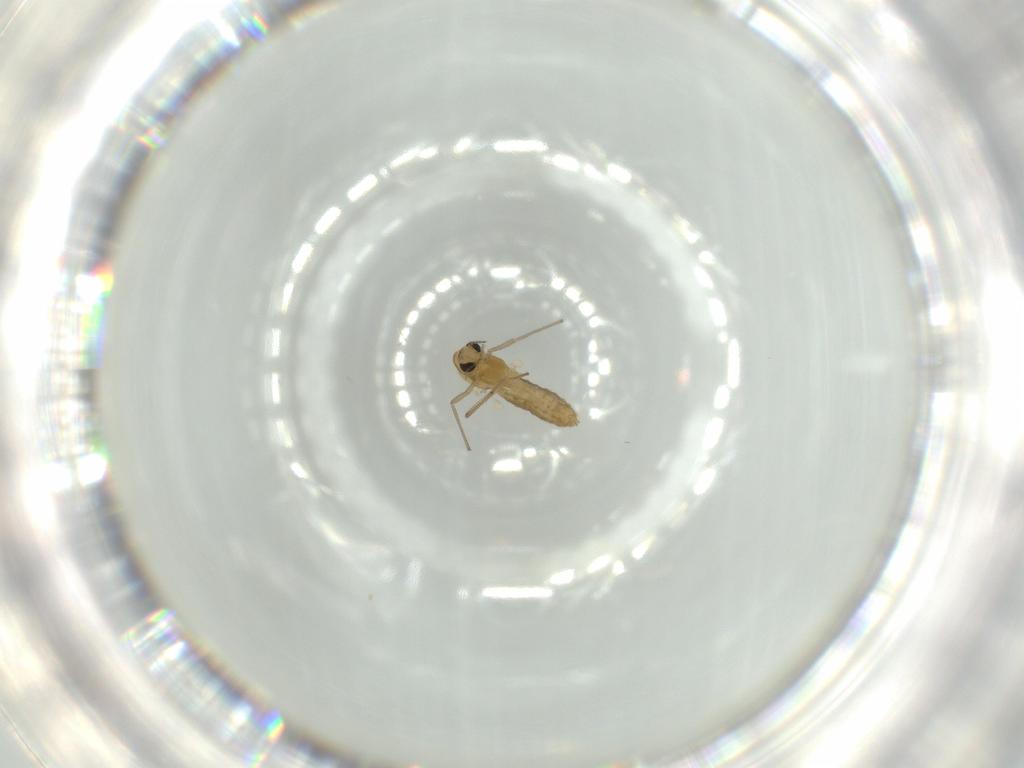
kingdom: Animalia
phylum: Arthropoda
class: Insecta
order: Diptera
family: Chironomidae
